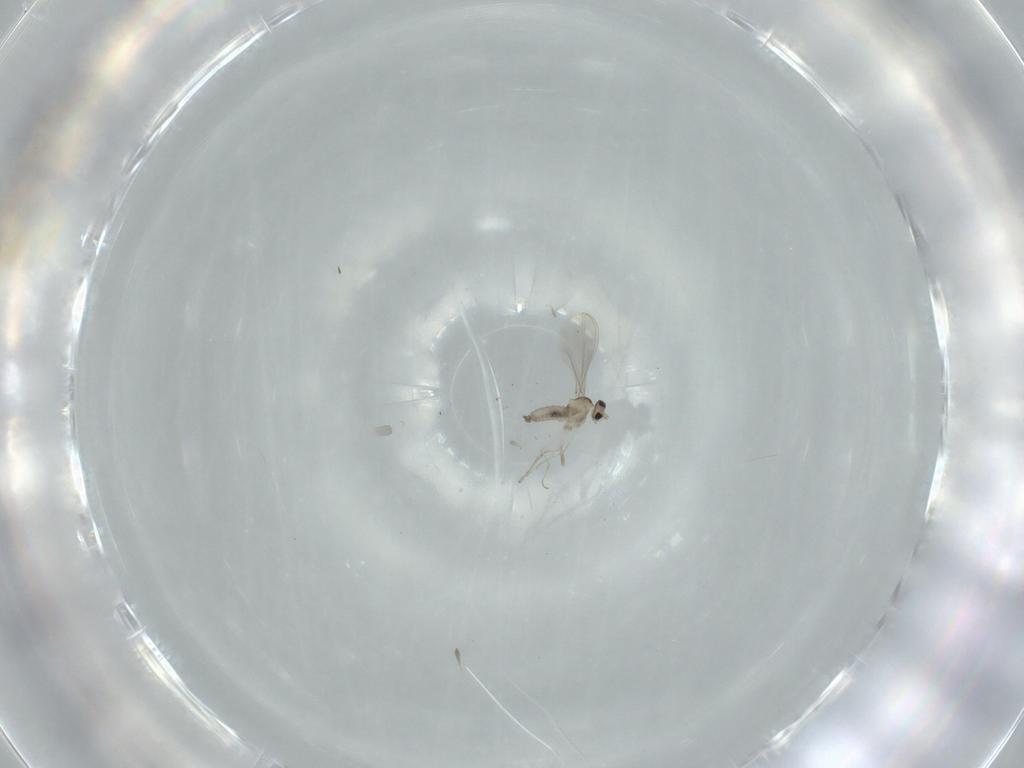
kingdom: Animalia
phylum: Arthropoda
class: Insecta
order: Diptera
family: Cecidomyiidae
